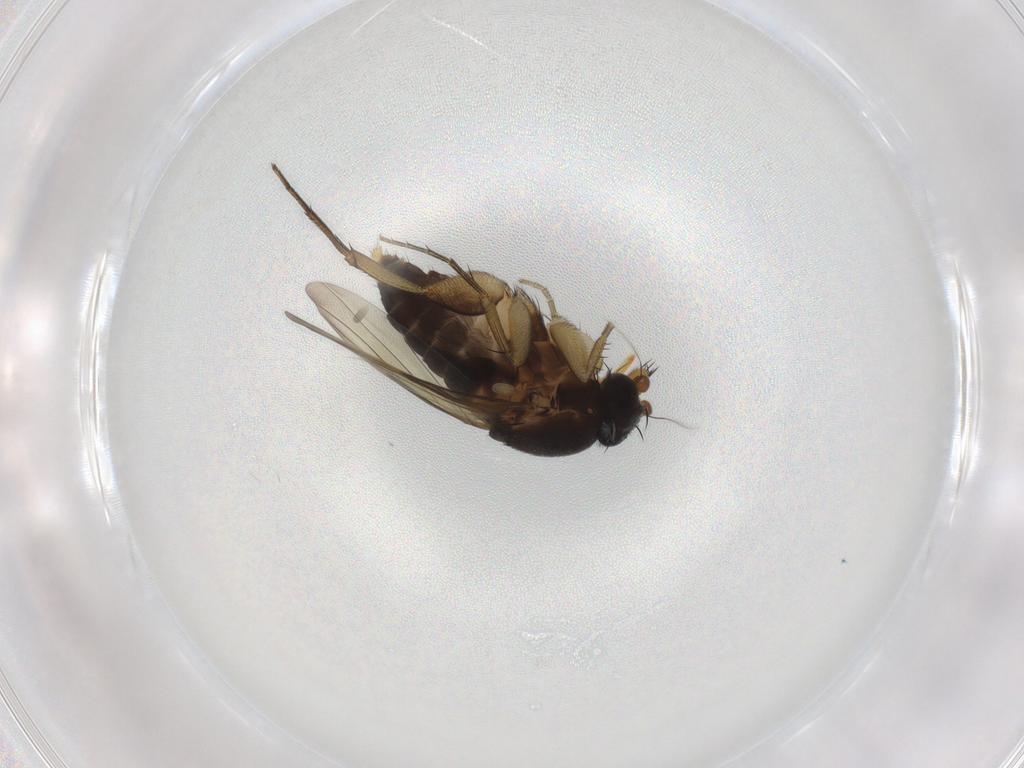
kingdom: Animalia
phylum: Arthropoda
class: Insecta
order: Diptera
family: Phoridae
